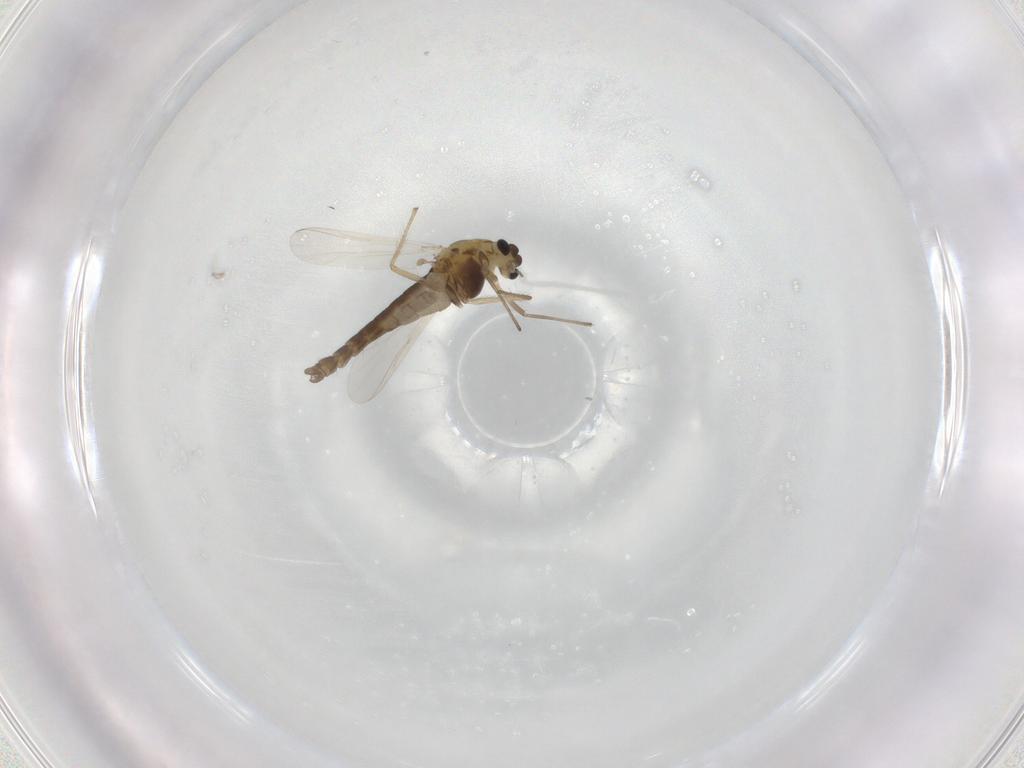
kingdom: Animalia
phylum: Arthropoda
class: Insecta
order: Diptera
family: Chironomidae
